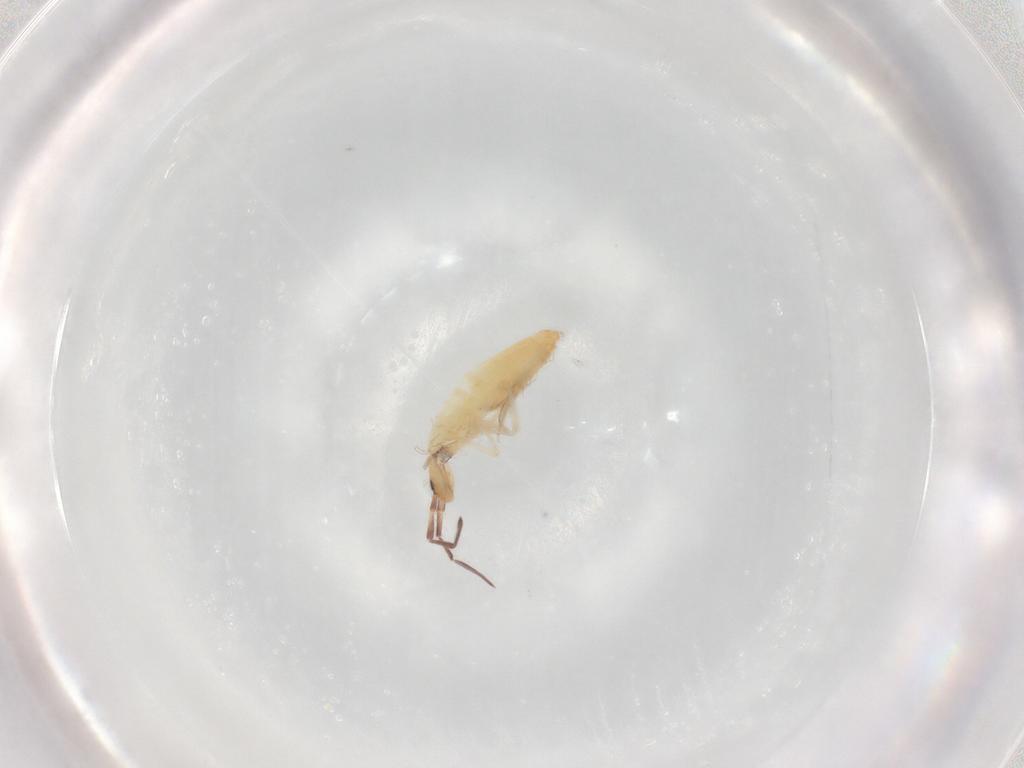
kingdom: Animalia
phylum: Arthropoda
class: Collembola
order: Entomobryomorpha
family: Entomobryidae
